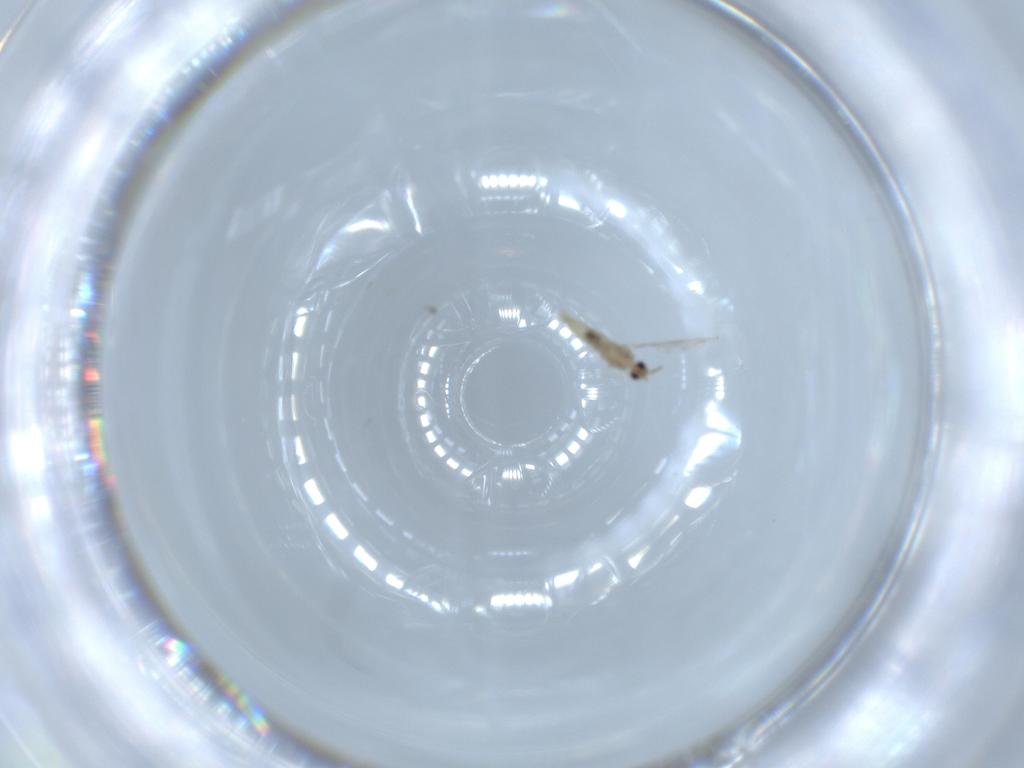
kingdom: Animalia
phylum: Arthropoda
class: Insecta
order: Diptera
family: Cecidomyiidae
